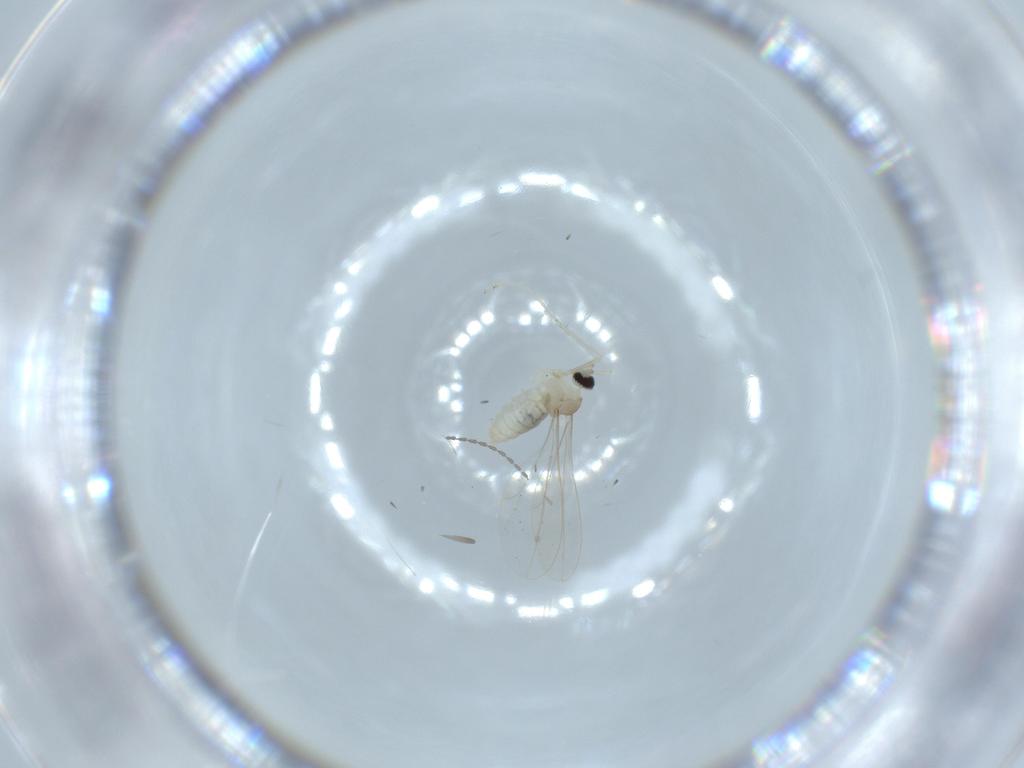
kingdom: Animalia
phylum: Arthropoda
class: Insecta
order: Diptera
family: Cecidomyiidae
